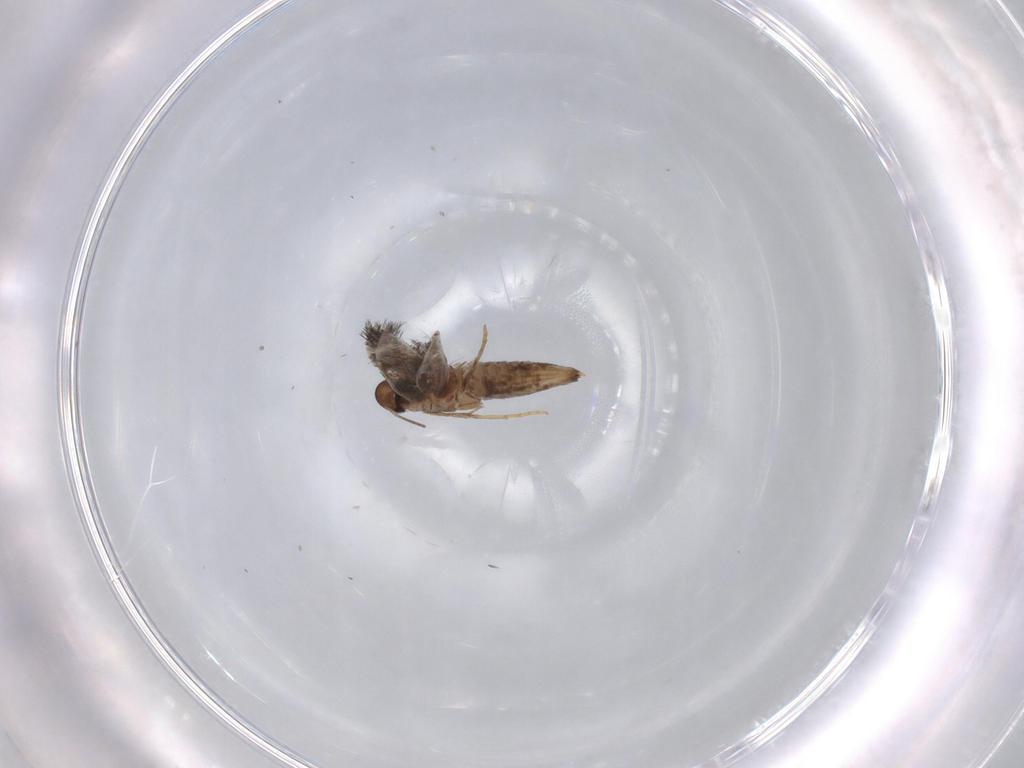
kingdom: Animalia
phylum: Arthropoda
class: Insecta
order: Lepidoptera
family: Heliozelidae
